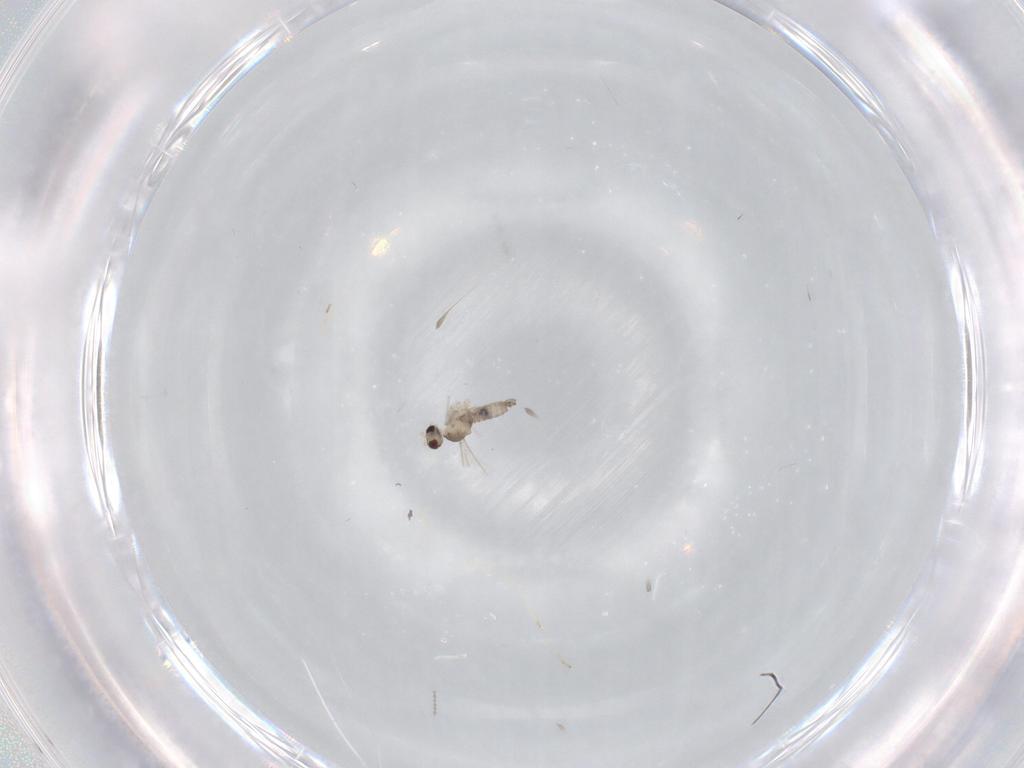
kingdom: Animalia
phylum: Arthropoda
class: Insecta
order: Diptera
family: Cecidomyiidae
